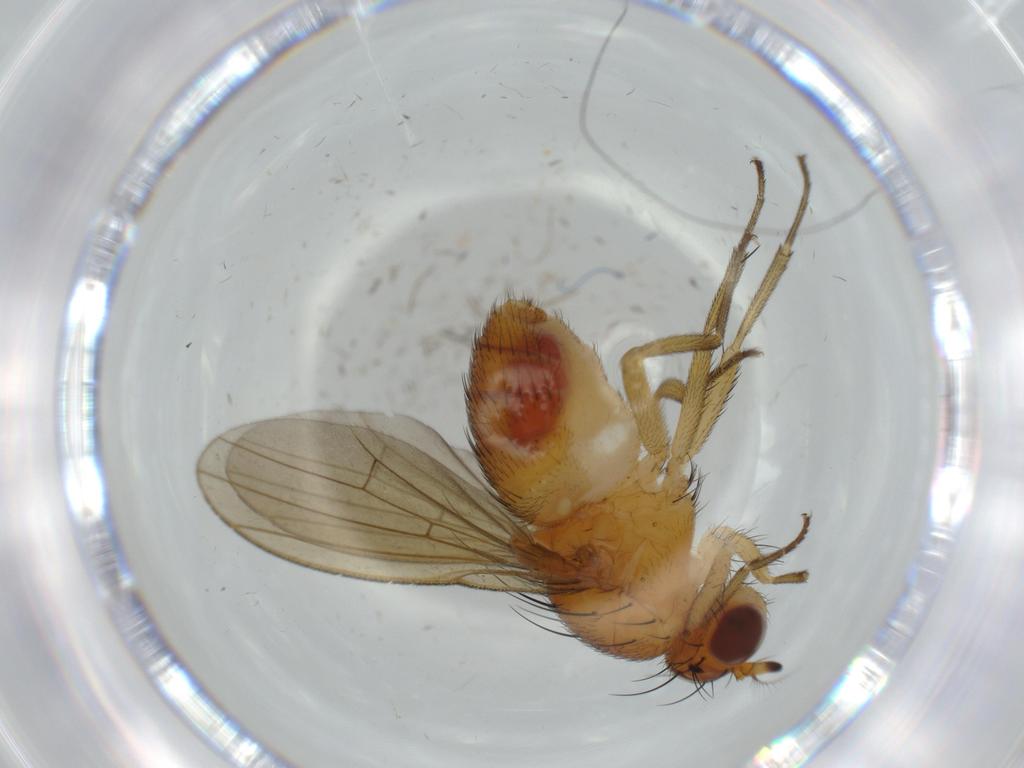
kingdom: Animalia
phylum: Arthropoda
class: Insecta
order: Diptera
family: Lauxaniidae
